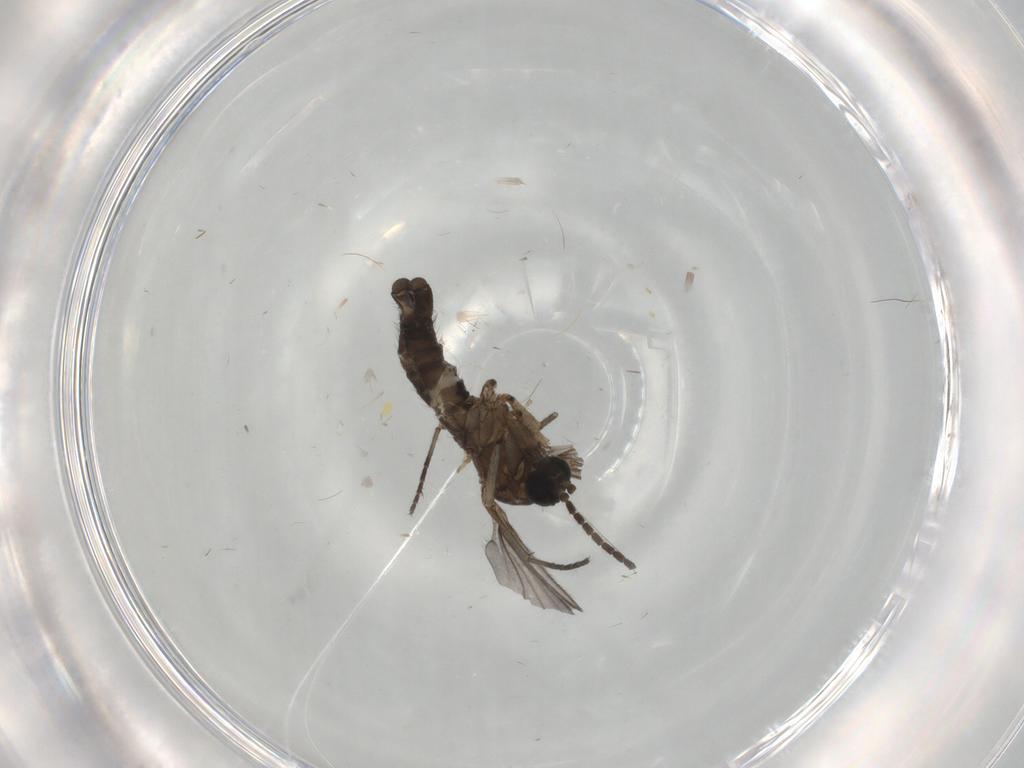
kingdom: Animalia
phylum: Arthropoda
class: Insecta
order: Diptera
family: Sciaridae
